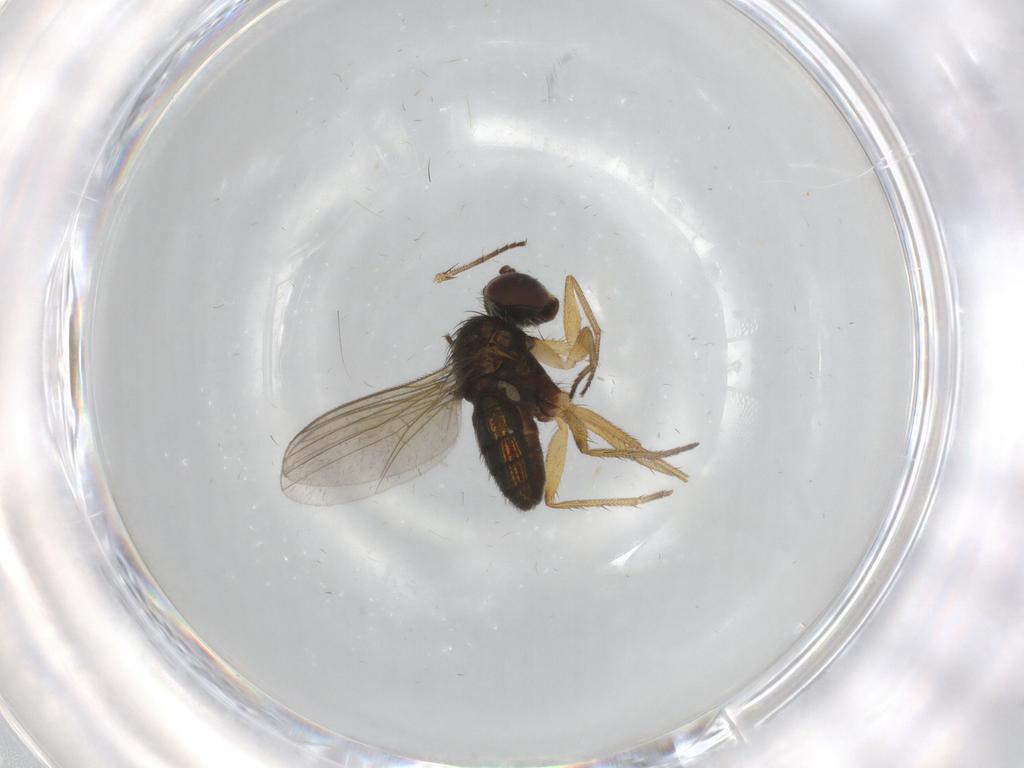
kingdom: Animalia
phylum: Arthropoda
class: Insecta
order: Diptera
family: Dolichopodidae
